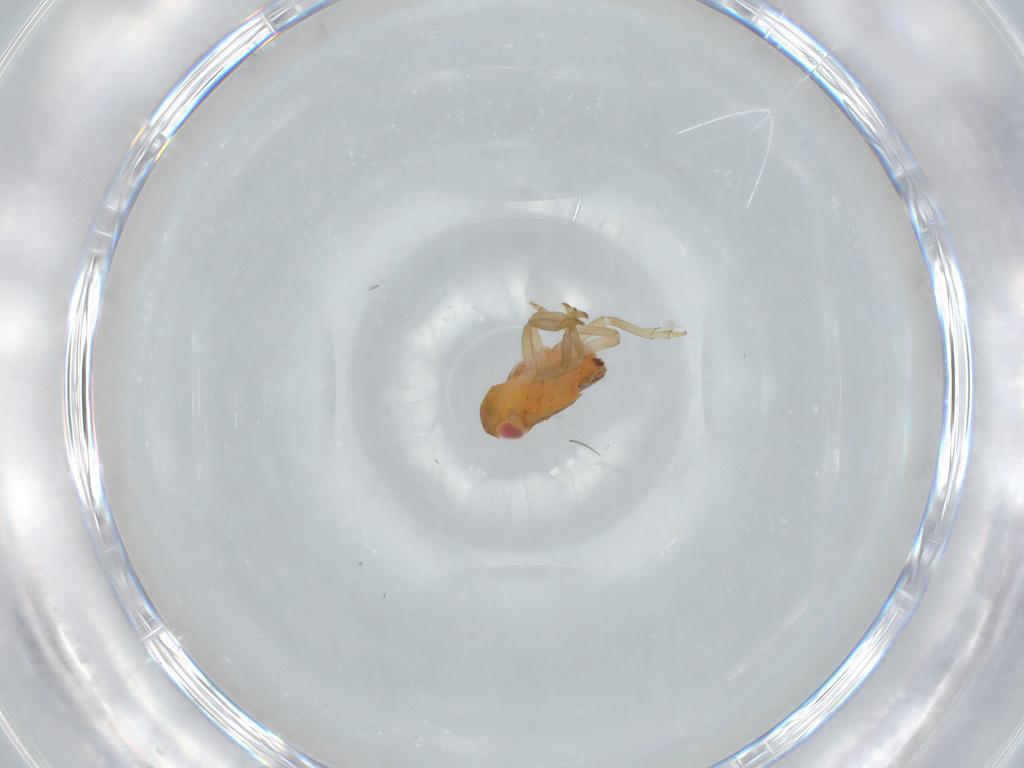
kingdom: Animalia
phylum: Arthropoda
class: Insecta
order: Hemiptera
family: Fulgoroidea_incertae_sedis
